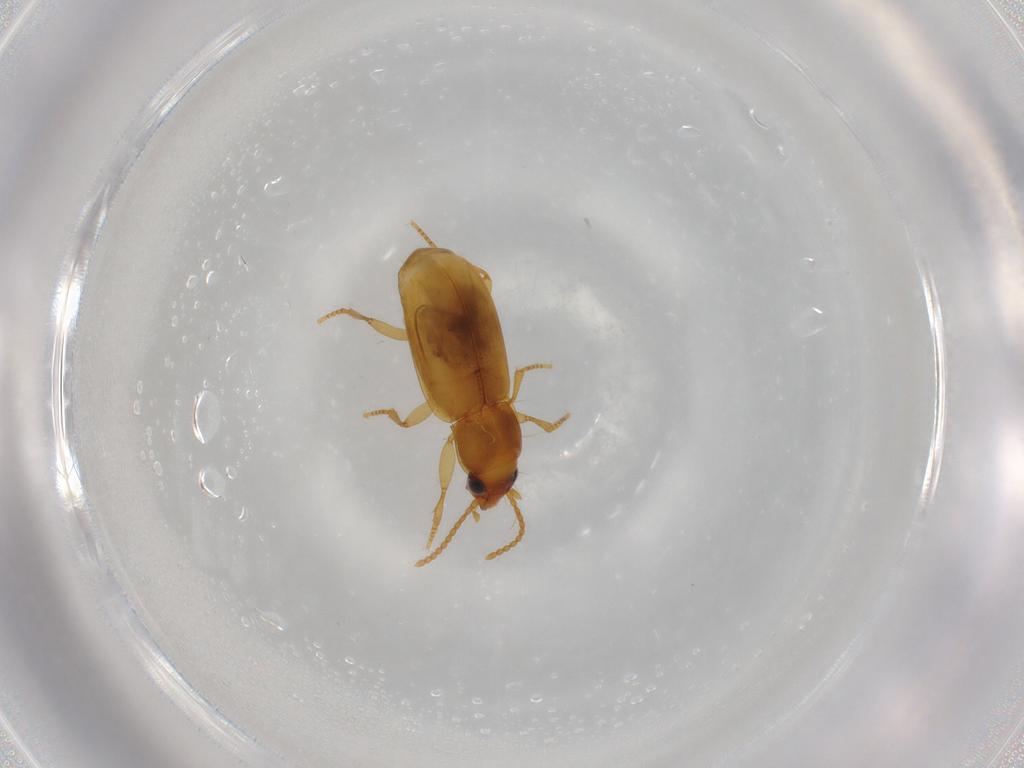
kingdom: Animalia
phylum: Arthropoda
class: Insecta
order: Coleoptera
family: Carabidae
